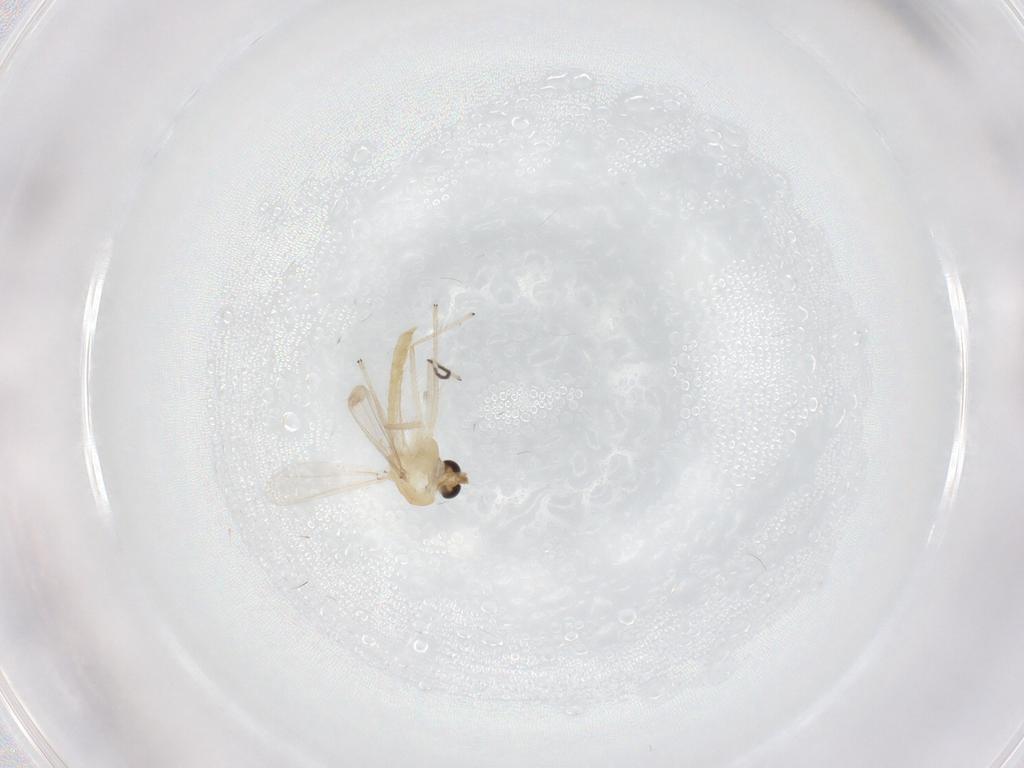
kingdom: Animalia
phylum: Arthropoda
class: Insecta
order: Diptera
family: Chironomidae
